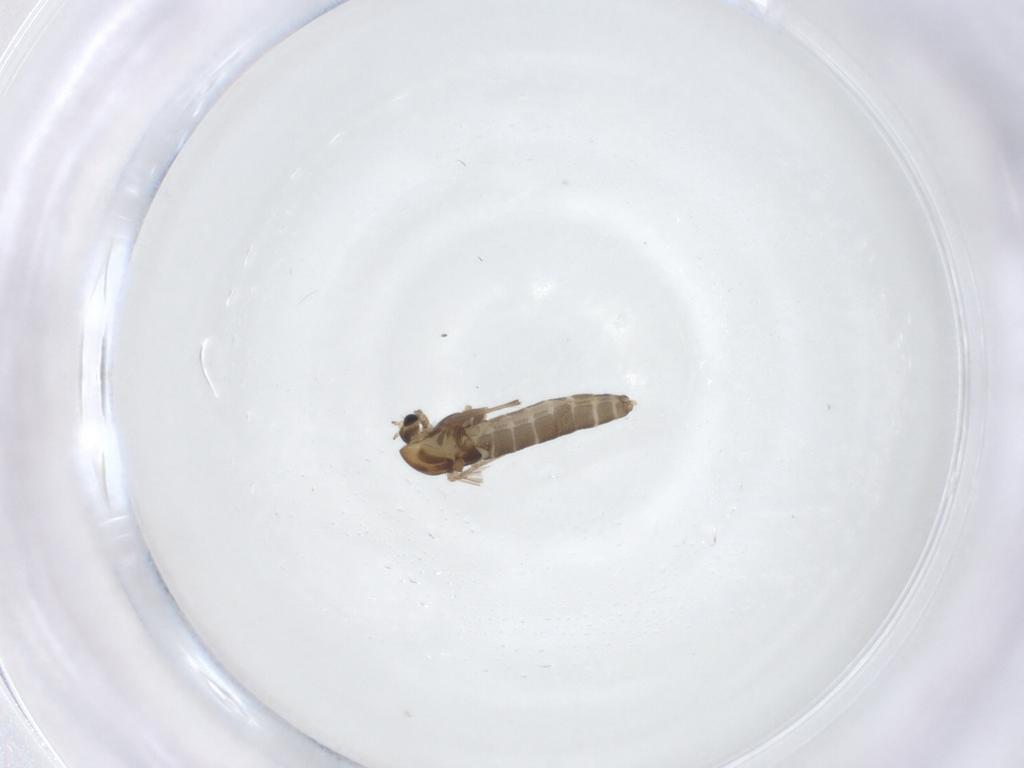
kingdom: Animalia
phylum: Arthropoda
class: Insecta
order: Diptera
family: Chironomidae
